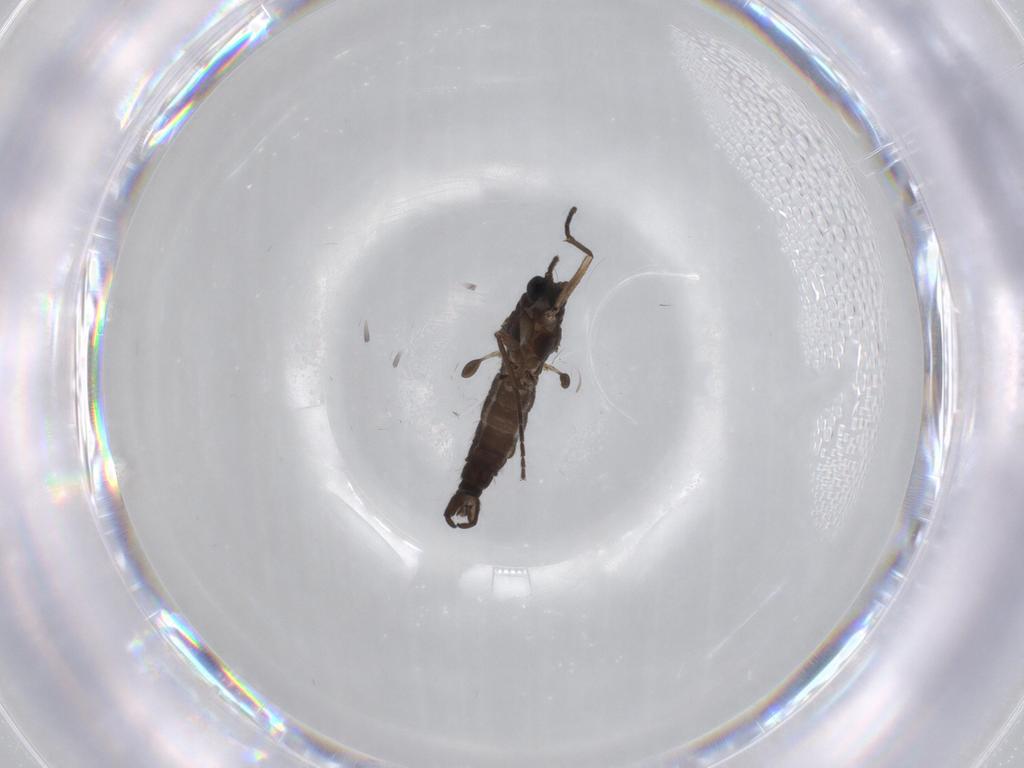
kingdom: Animalia
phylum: Arthropoda
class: Insecta
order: Diptera
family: Sciaridae
